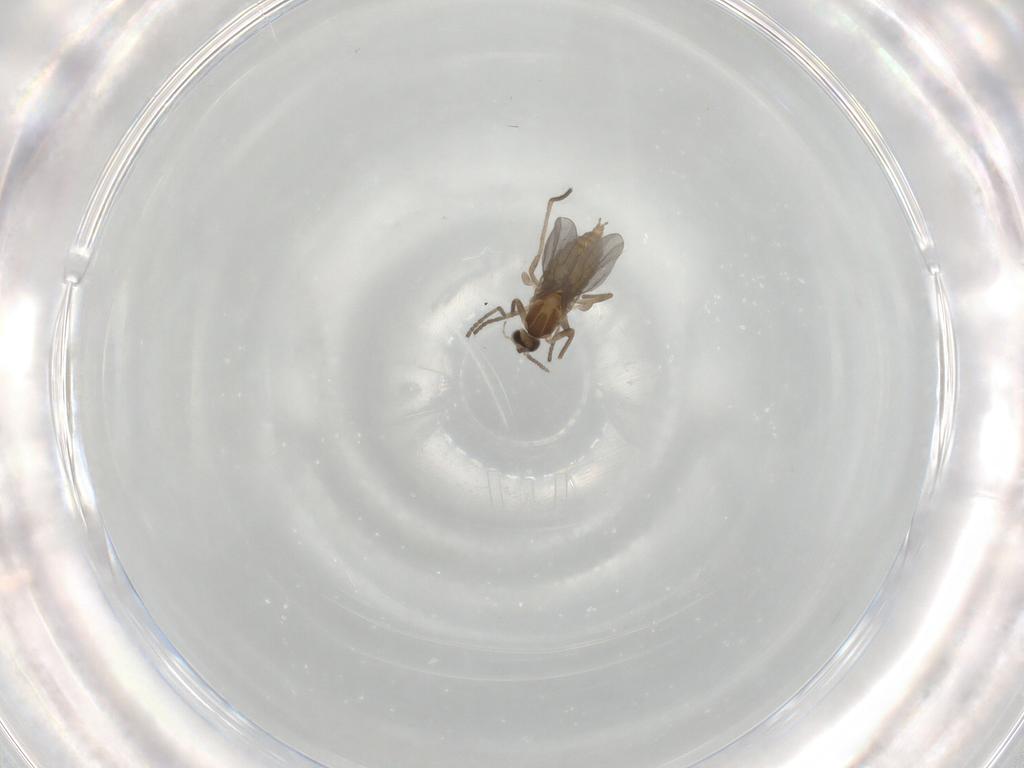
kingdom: Animalia
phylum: Arthropoda
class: Insecta
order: Diptera
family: Cecidomyiidae
